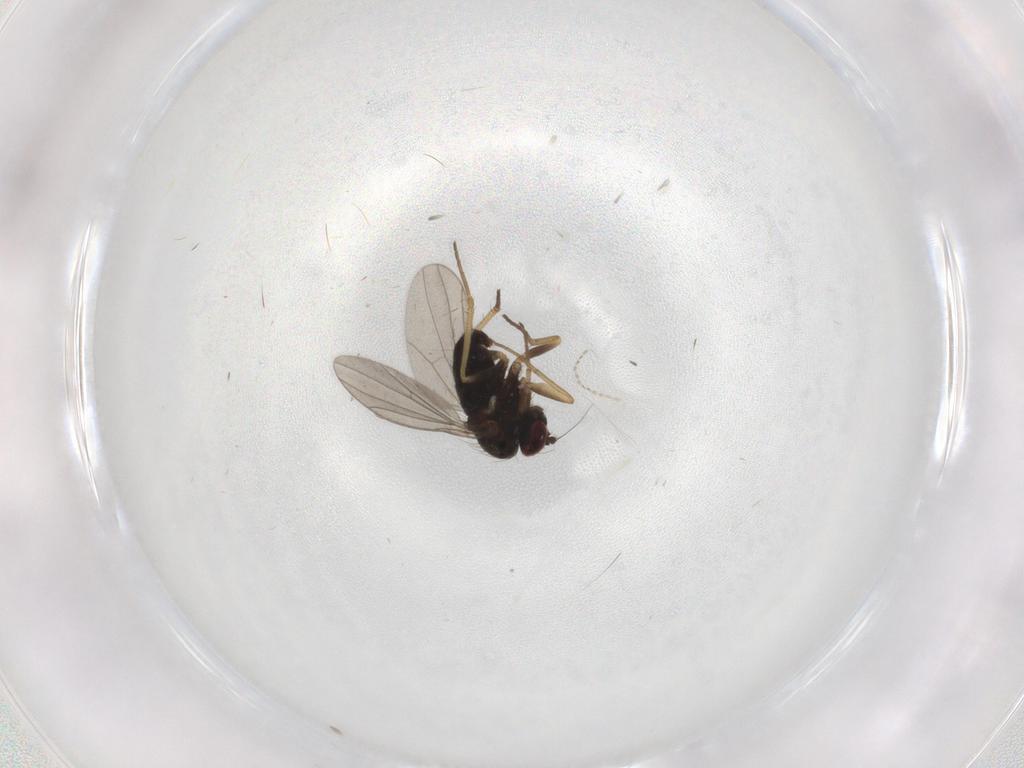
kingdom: Animalia
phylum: Arthropoda
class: Insecta
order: Diptera
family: Cecidomyiidae
